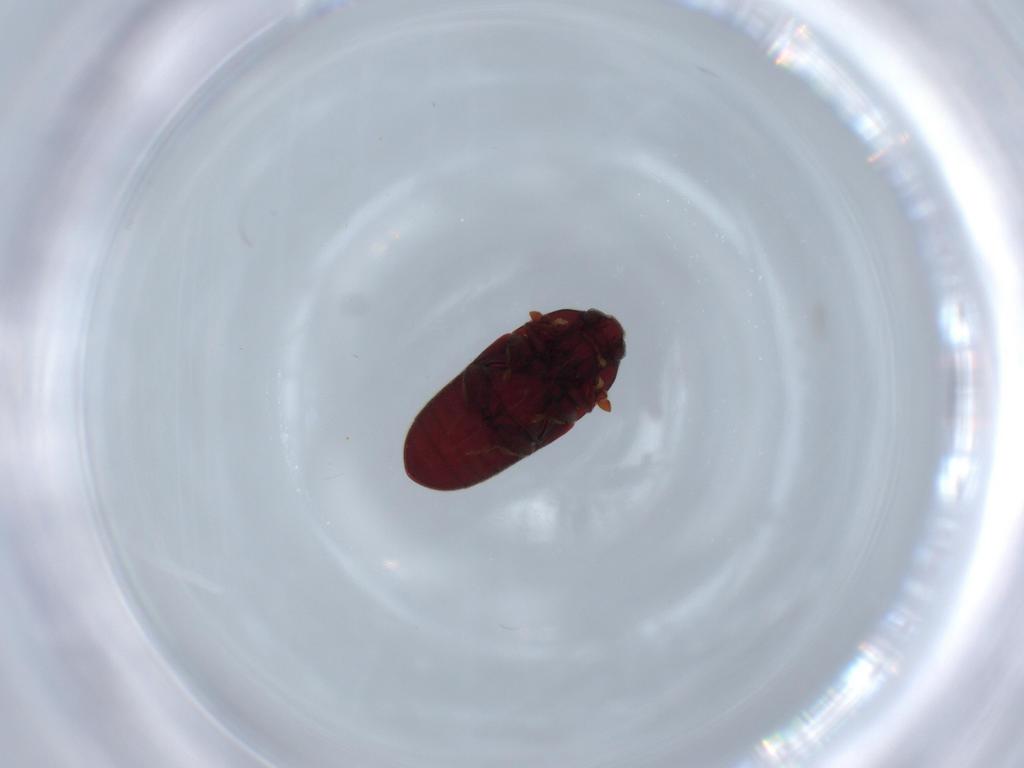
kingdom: Animalia
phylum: Arthropoda
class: Insecta
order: Coleoptera
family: Throscidae
